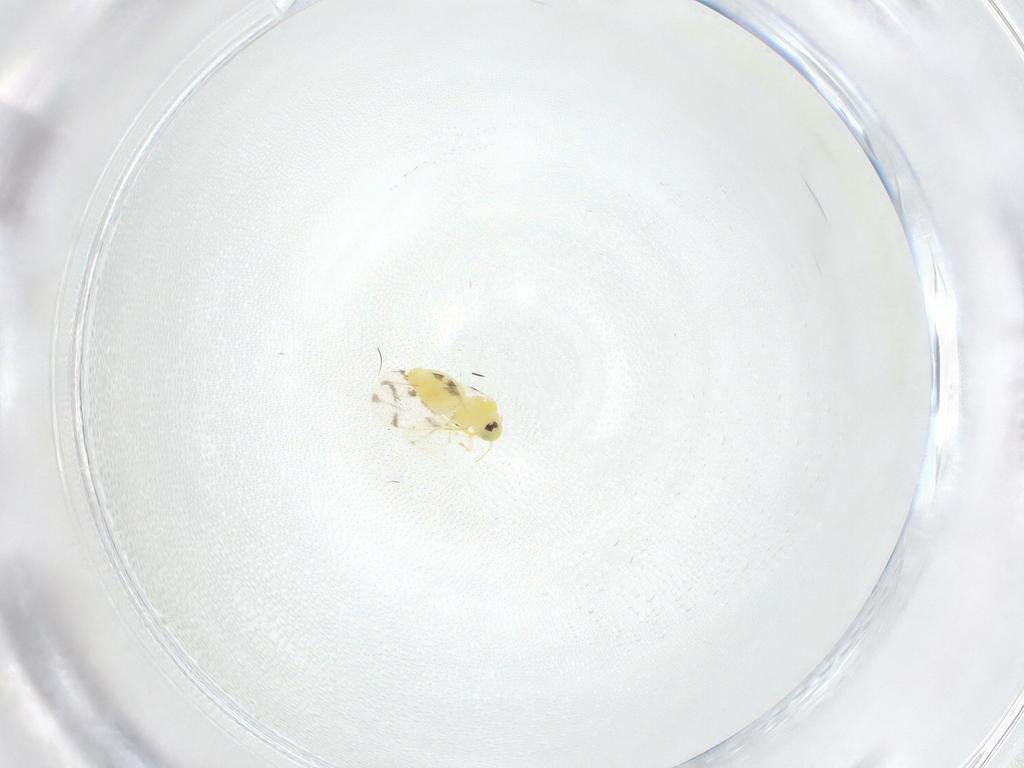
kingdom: Animalia
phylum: Arthropoda
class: Insecta
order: Hemiptera
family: Aleyrodidae
